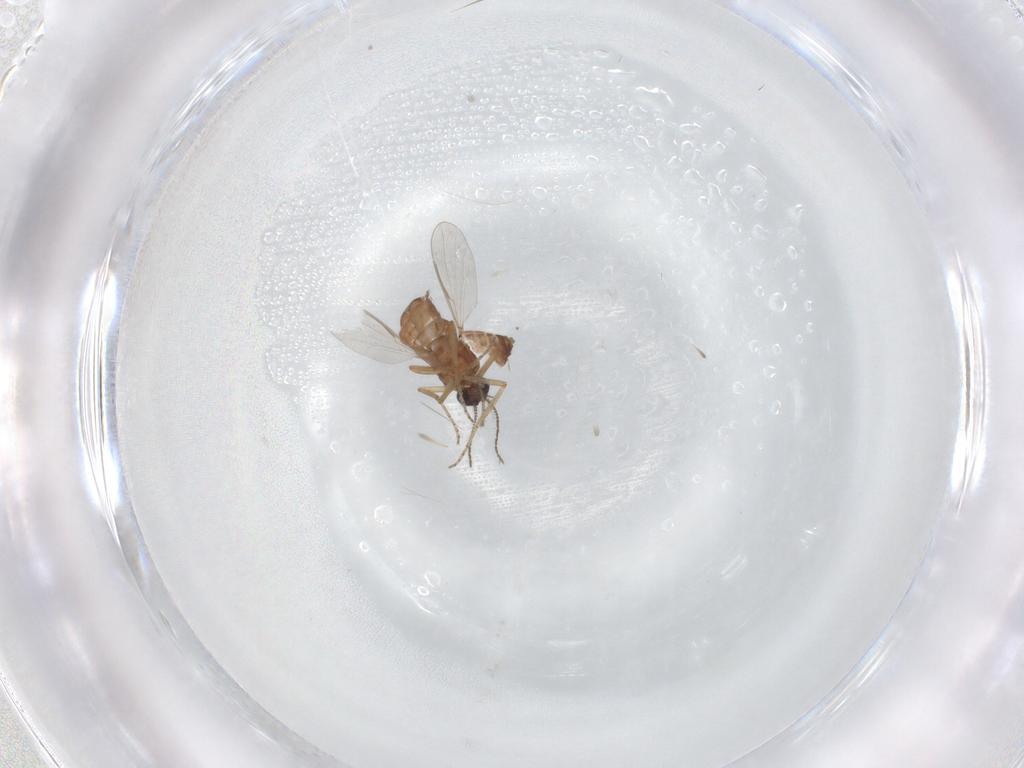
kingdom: Animalia
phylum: Arthropoda
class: Insecta
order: Diptera
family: Ceratopogonidae
